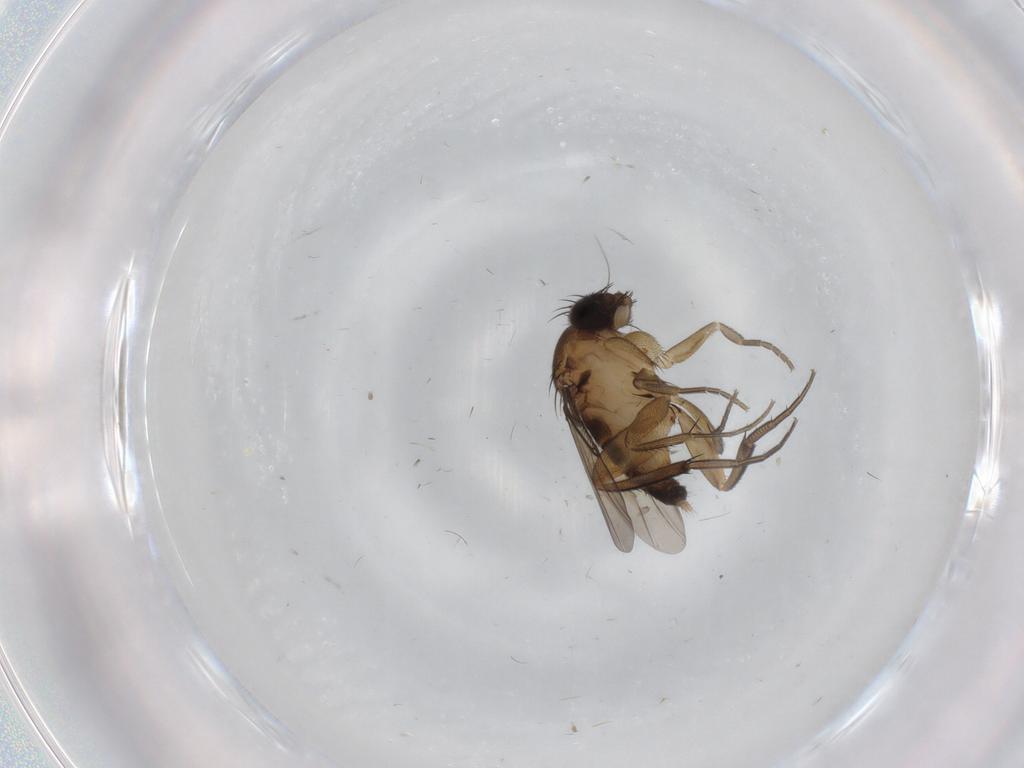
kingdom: Animalia
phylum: Arthropoda
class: Insecta
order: Diptera
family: Phoridae
